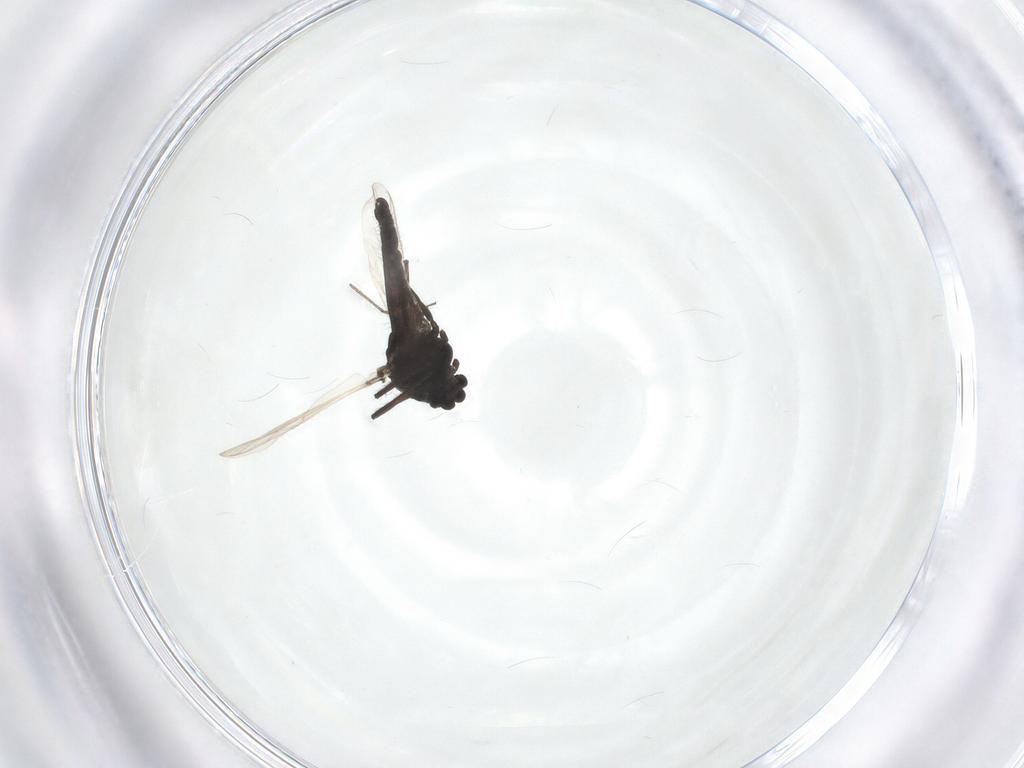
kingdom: Animalia
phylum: Arthropoda
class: Insecta
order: Diptera
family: Chironomidae
